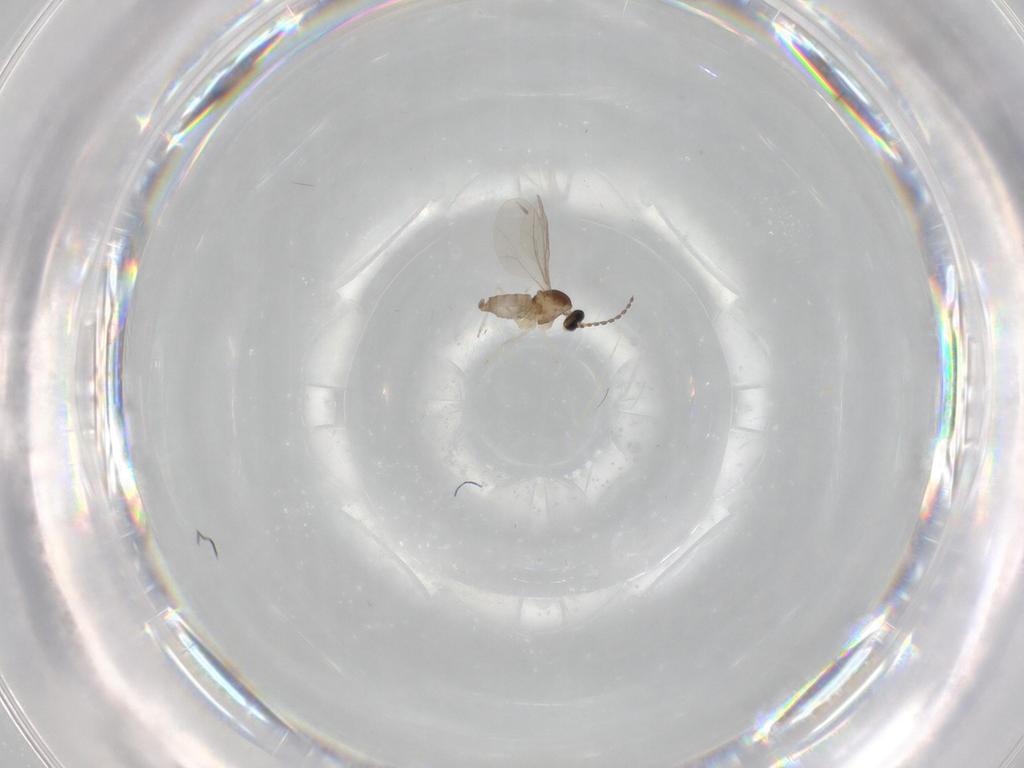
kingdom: Animalia
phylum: Arthropoda
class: Insecta
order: Diptera
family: Cecidomyiidae
